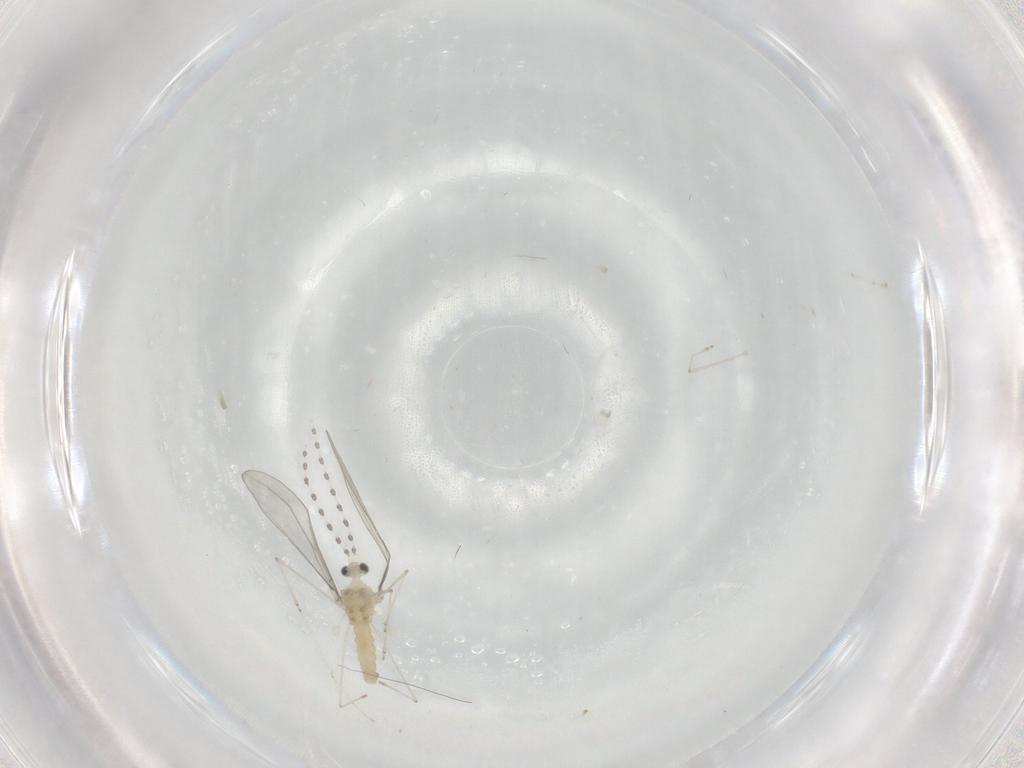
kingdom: Animalia
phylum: Arthropoda
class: Insecta
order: Diptera
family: Cecidomyiidae
